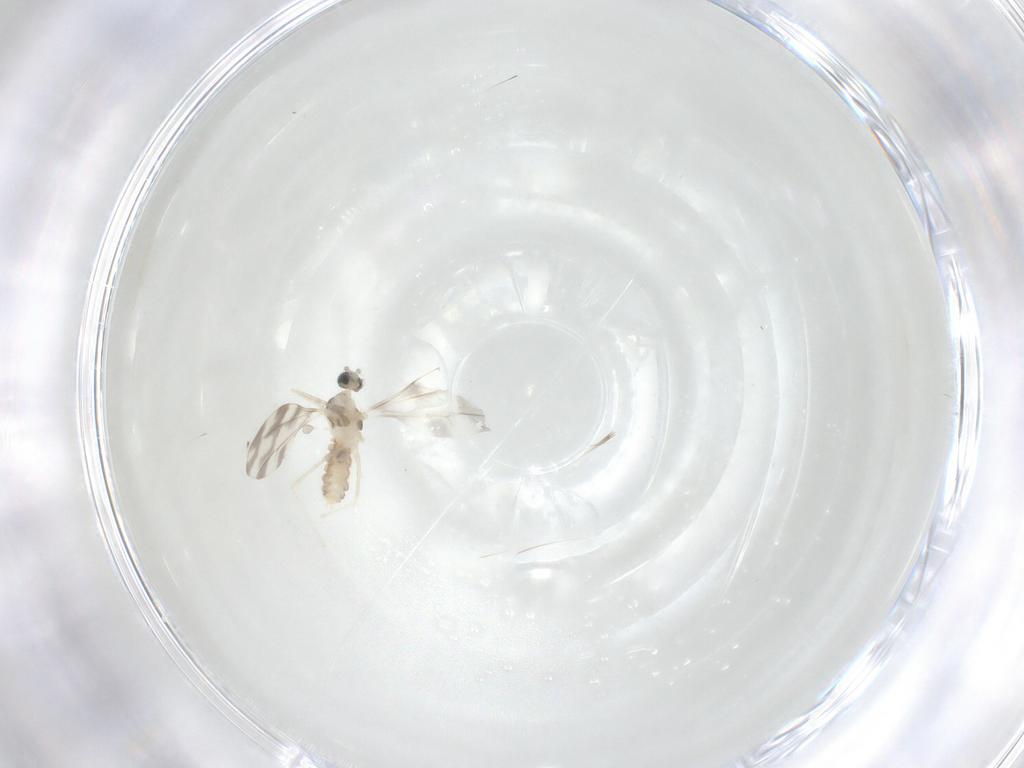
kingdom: Animalia
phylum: Arthropoda
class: Insecta
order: Diptera
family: Cecidomyiidae
